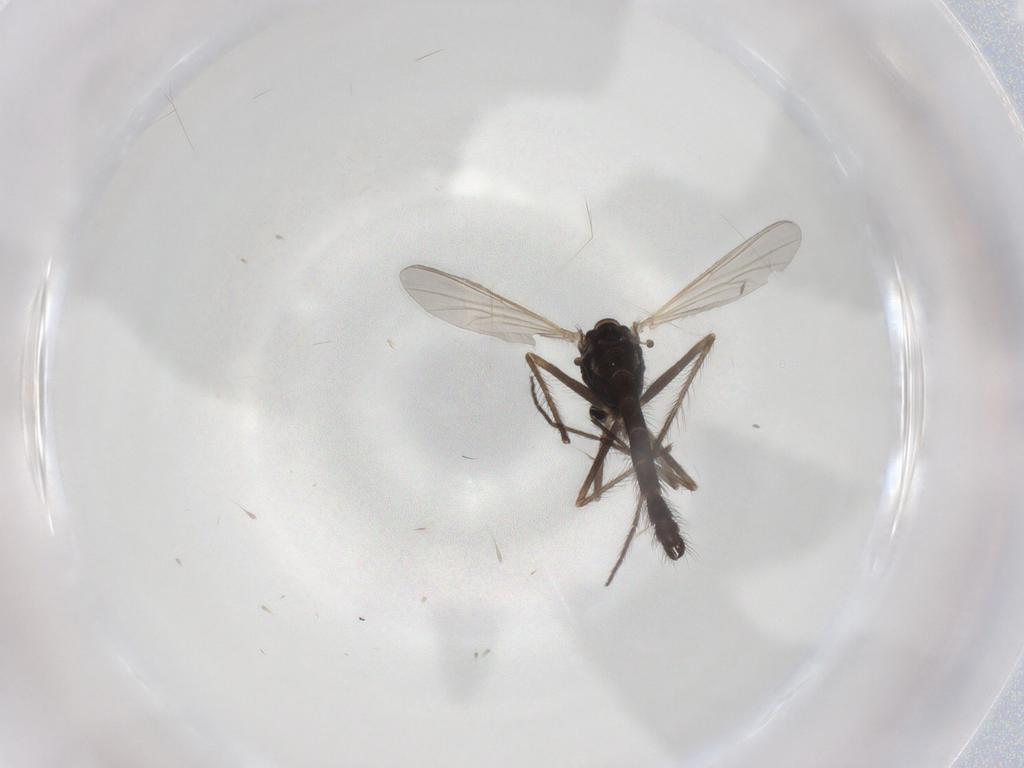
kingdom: Animalia
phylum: Arthropoda
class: Insecta
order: Diptera
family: Chironomidae
